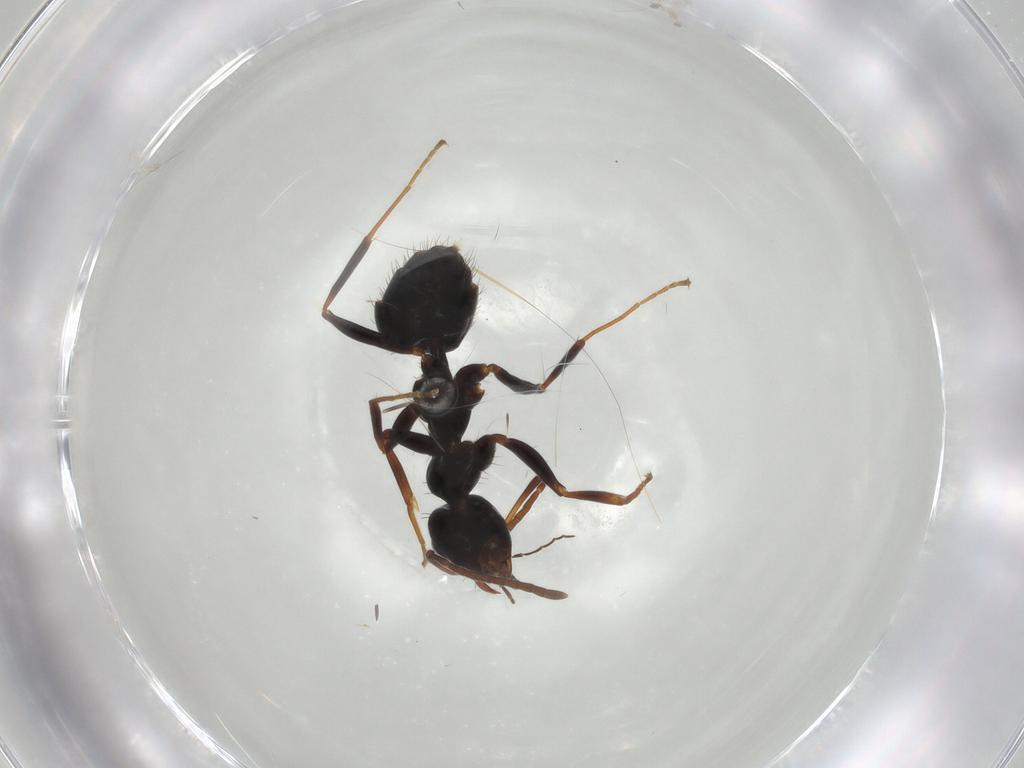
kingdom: Animalia
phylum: Arthropoda
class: Insecta
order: Hymenoptera
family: Formicidae
